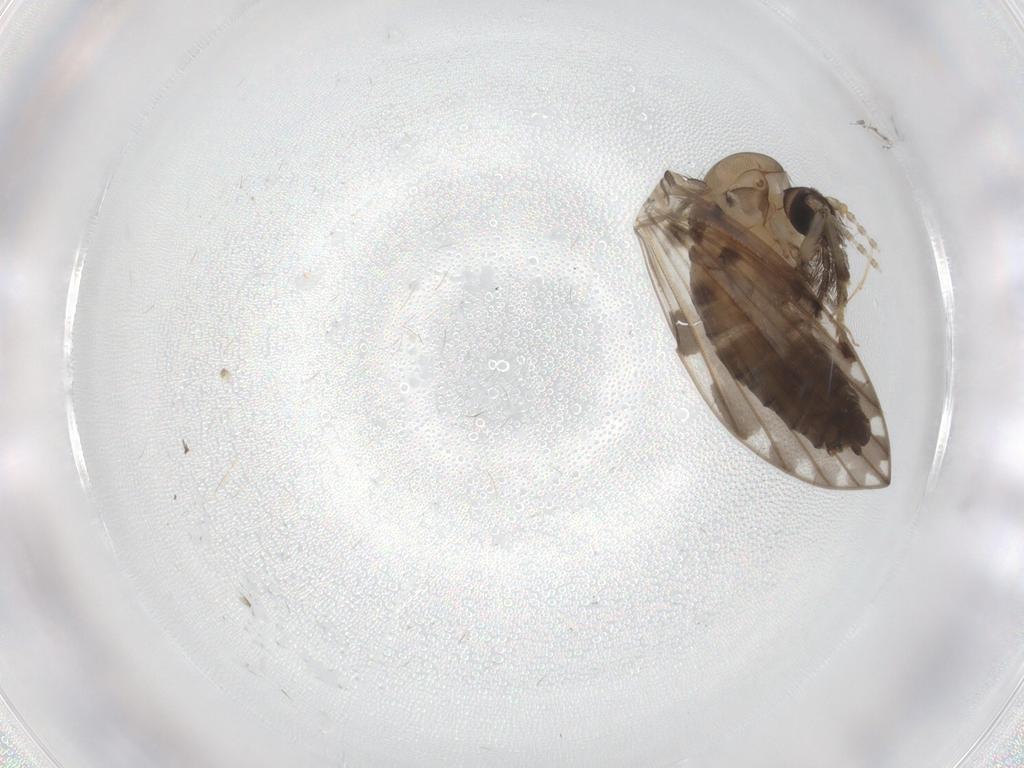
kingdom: Animalia
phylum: Arthropoda
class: Insecta
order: Diptera
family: Psychodidae
